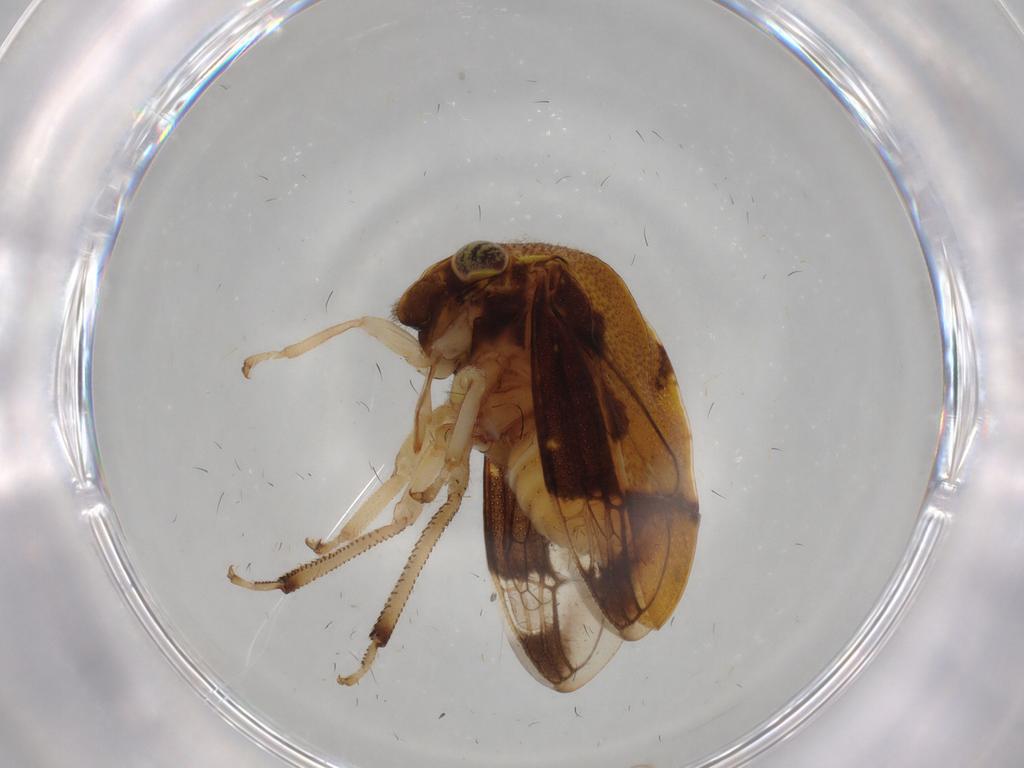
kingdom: Animalia
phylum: Arthropoda
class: Insecta
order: Hemiptera
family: Membracidae
